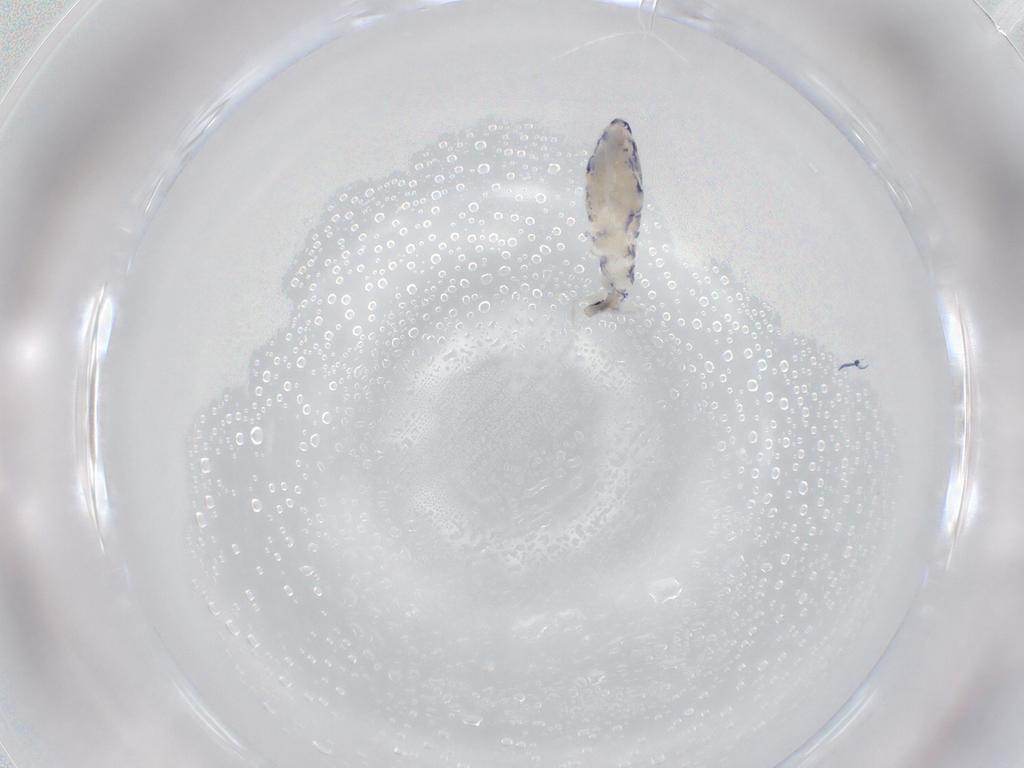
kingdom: Animalia
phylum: Arthropoda
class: Collembola
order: Entomobryomorpha
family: Entomobryidae
